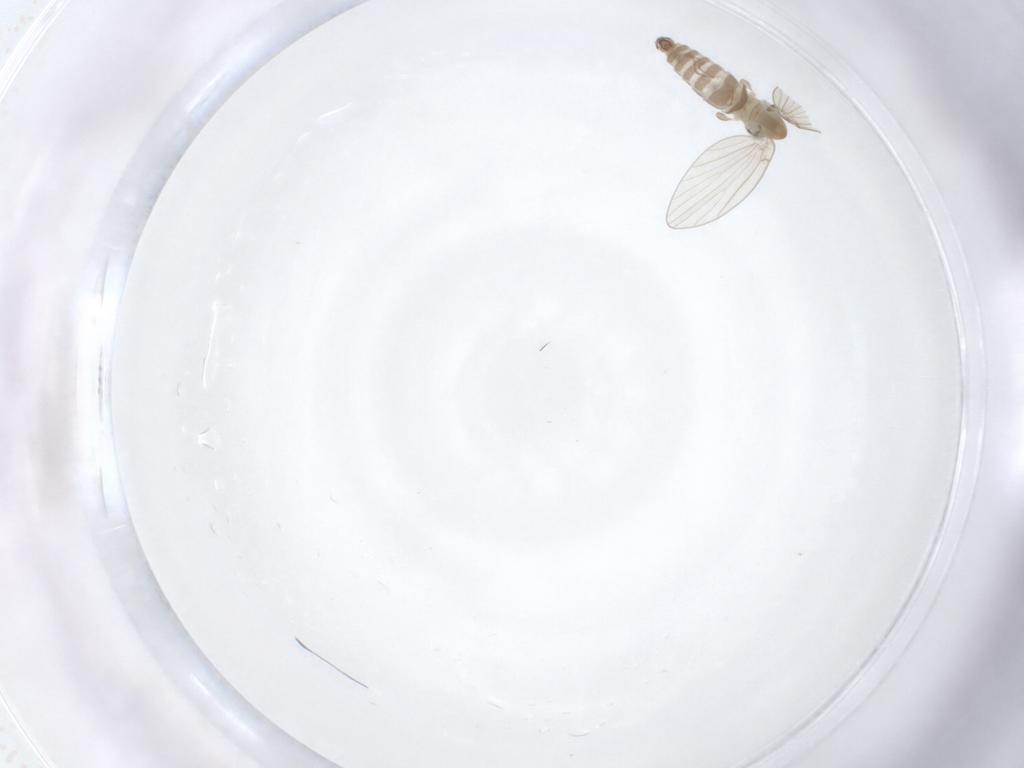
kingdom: Animalia
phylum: Arthropoda
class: Insecta
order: Diptera
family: Psychodidae
